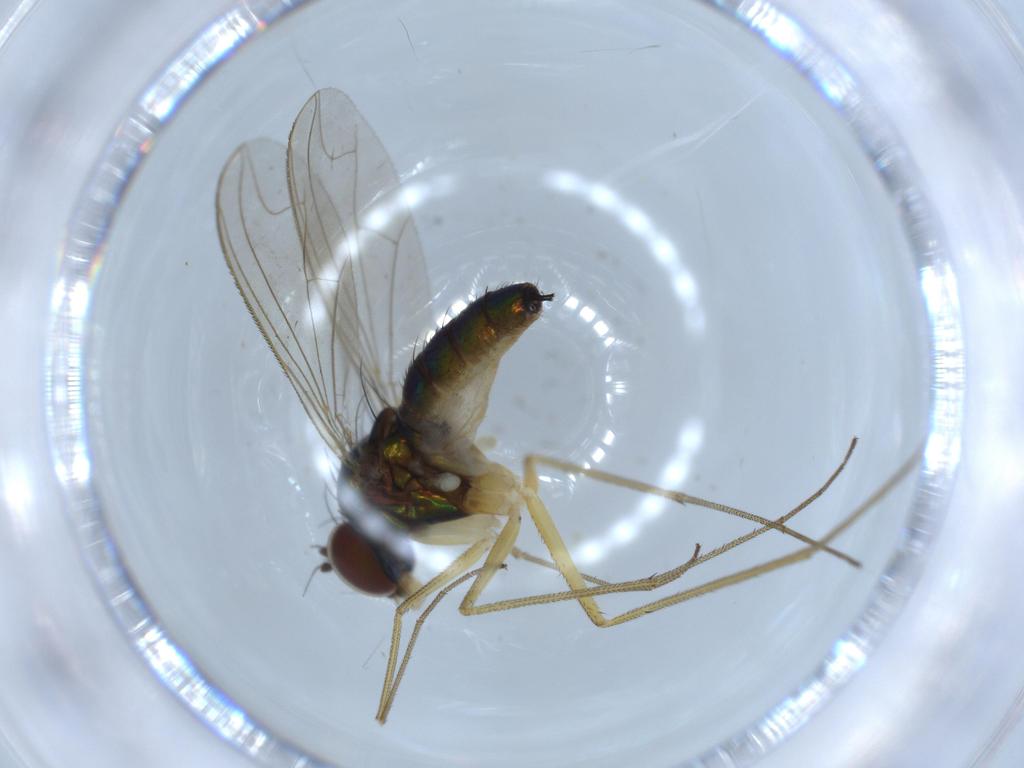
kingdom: Animalia
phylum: Arthropoda
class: Insecta
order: Diptera
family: Dolichopodidae
